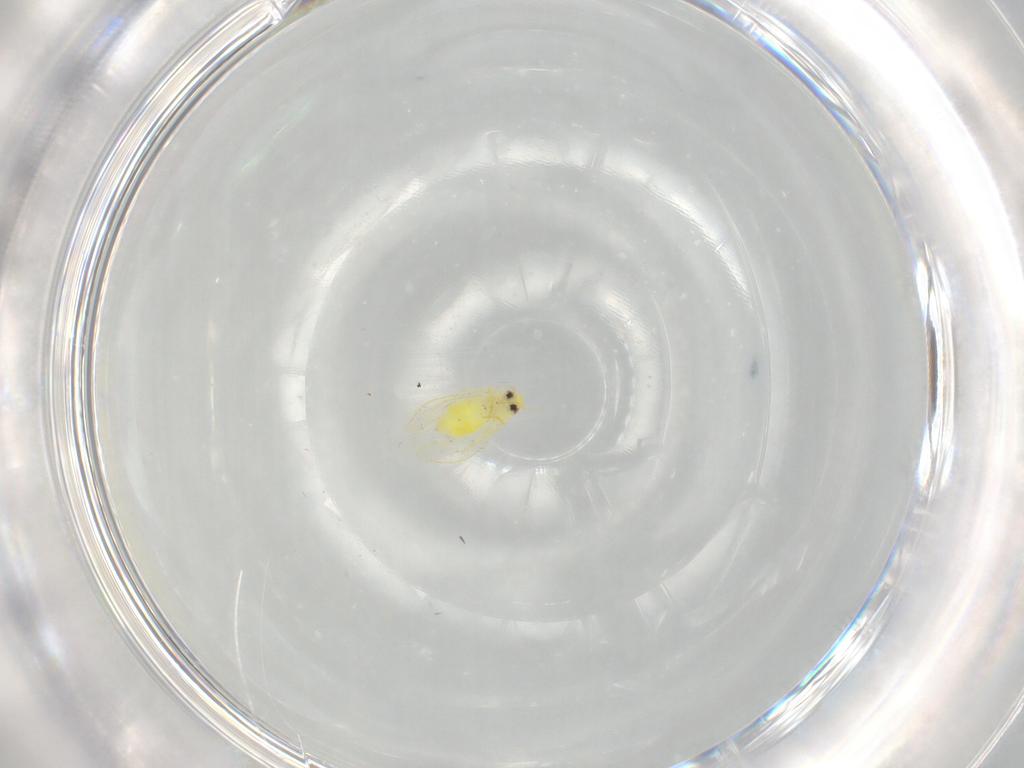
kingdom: Animalia
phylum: Arthropoda
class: Insecta
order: Hemiptera
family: Aleyrodidae
